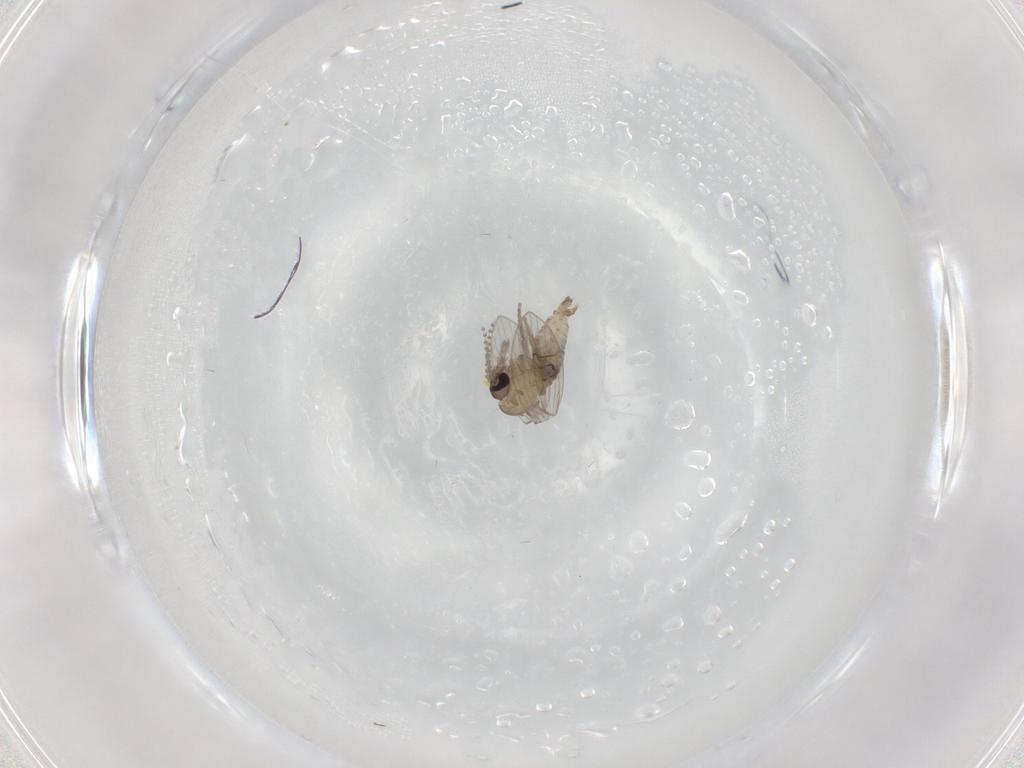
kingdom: Animalia
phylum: Arthropoda
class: Insecta
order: Diptera
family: Psychodidae
